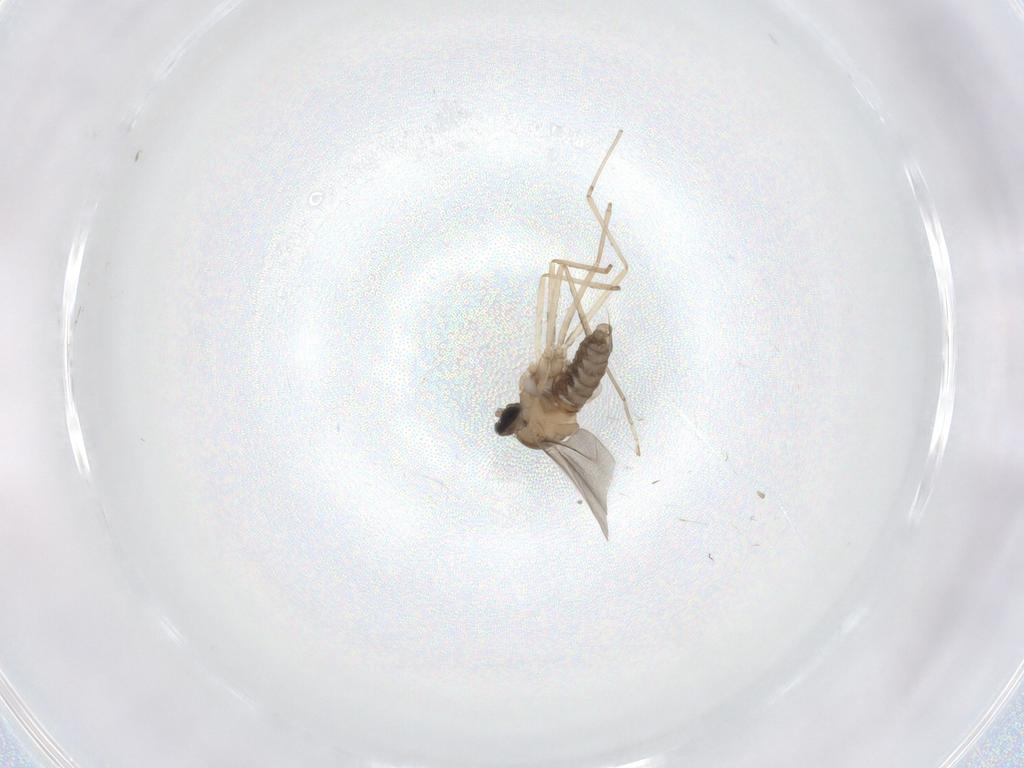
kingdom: Animalia
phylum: Arthropoda
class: Insecta
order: Diptera
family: Cecidomyiidae
